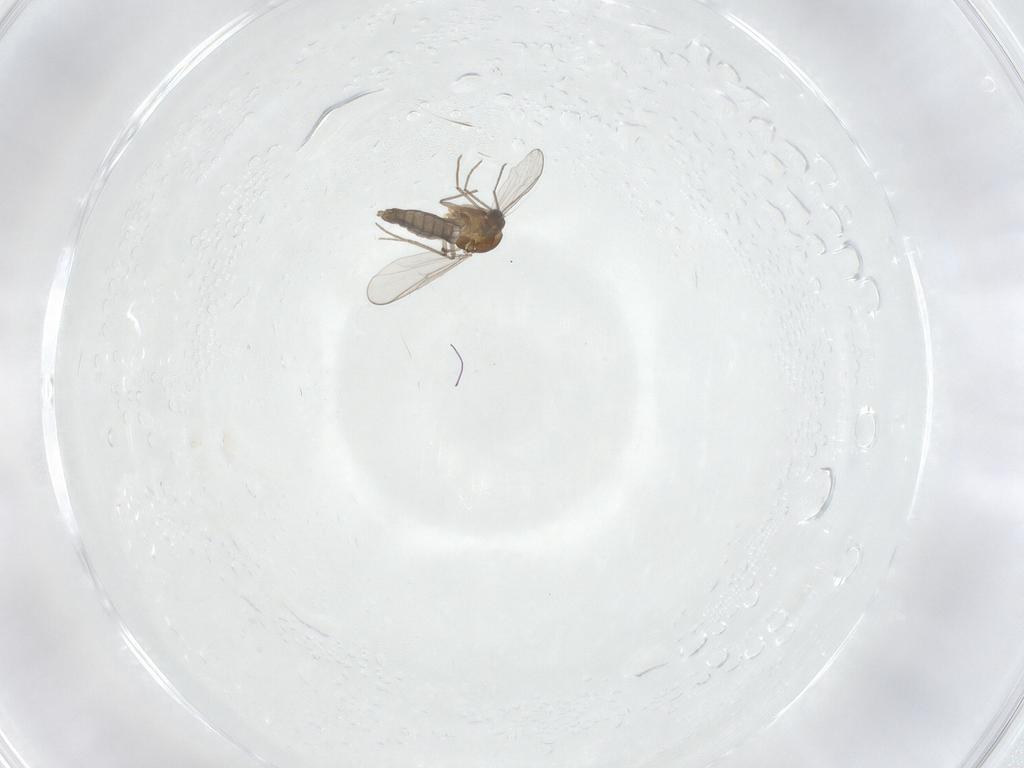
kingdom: Animalia
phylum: Arthropoda
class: Insecta
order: Diptera
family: Chironomidae
